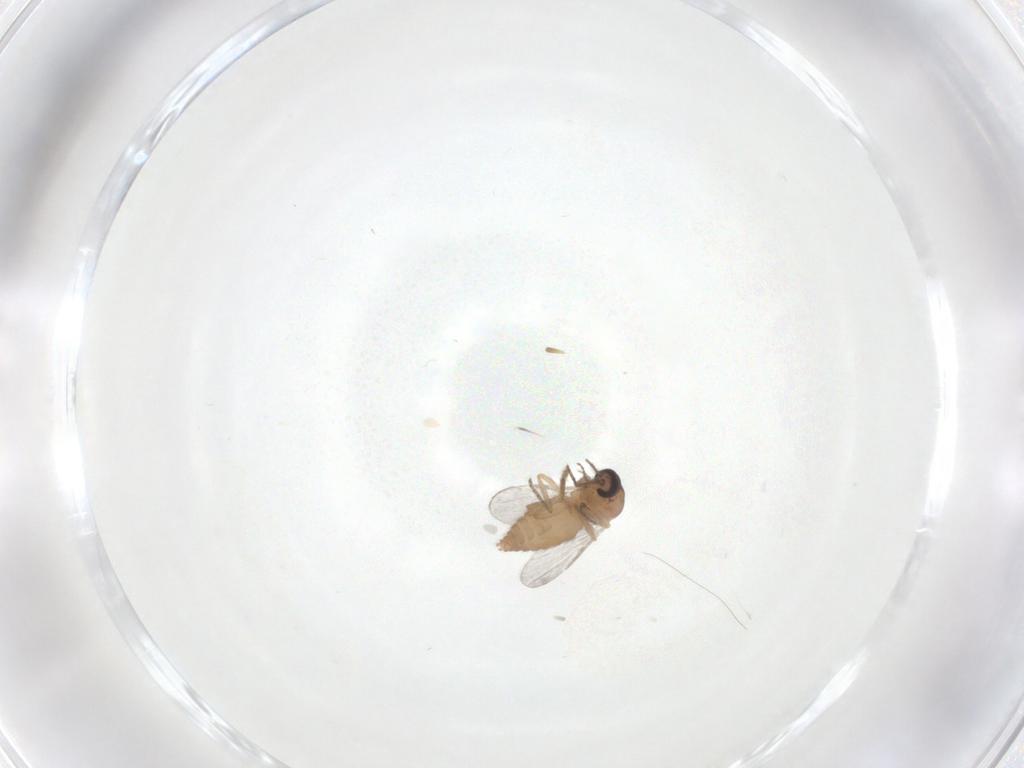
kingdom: Animalia
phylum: Arthropoda
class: Insecta
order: Diptera
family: Ceratopogonidae
